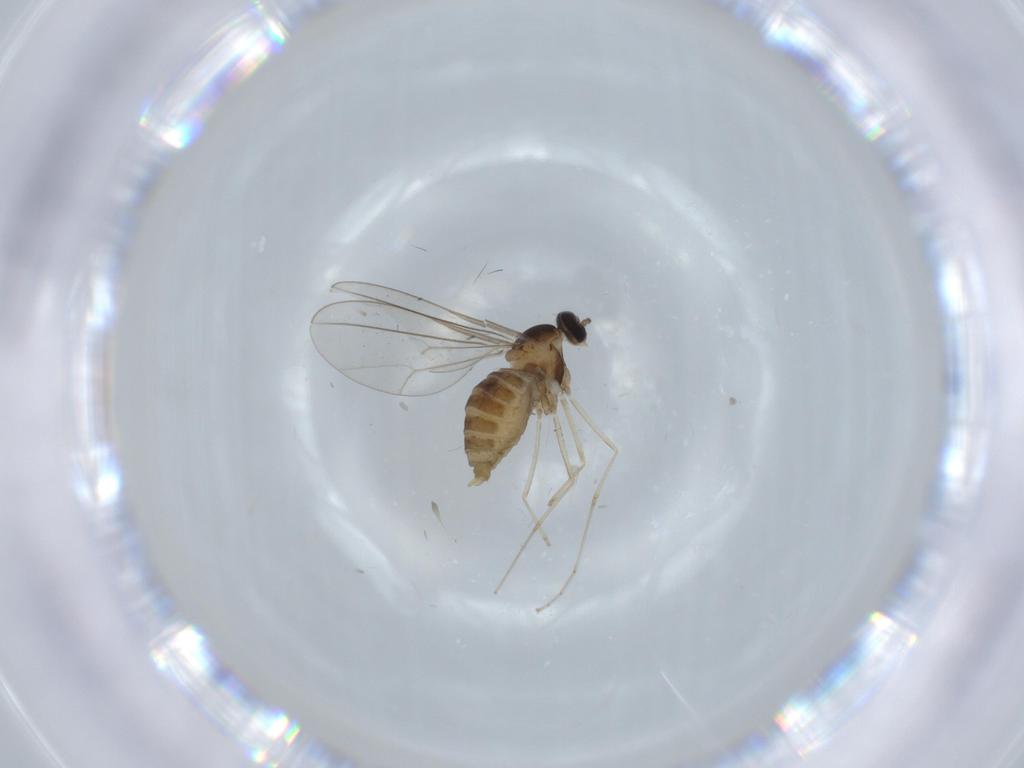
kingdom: Animalia
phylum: Arthropoda
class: Insecta
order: Diptera
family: Cecidomyiidae
